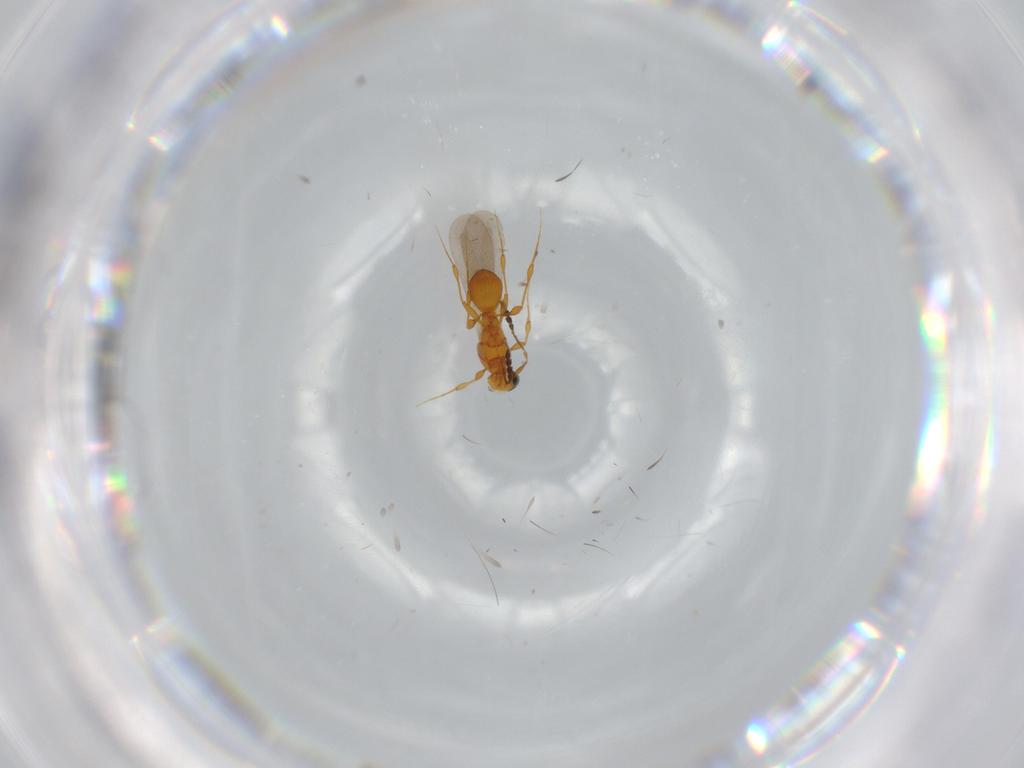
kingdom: Animalia
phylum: Arthropoda
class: Insecta
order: Hymenoptera
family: Platygastridae
